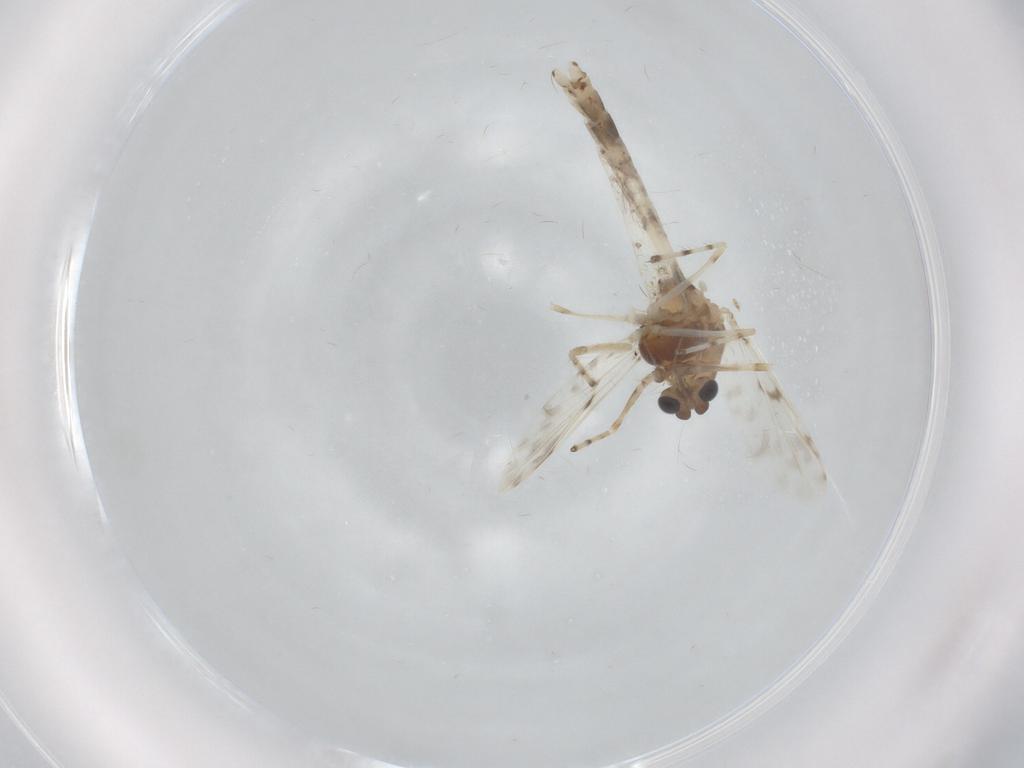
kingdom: Animalia
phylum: Arthropoda
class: Insecta
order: Diptera
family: Chironomidae
